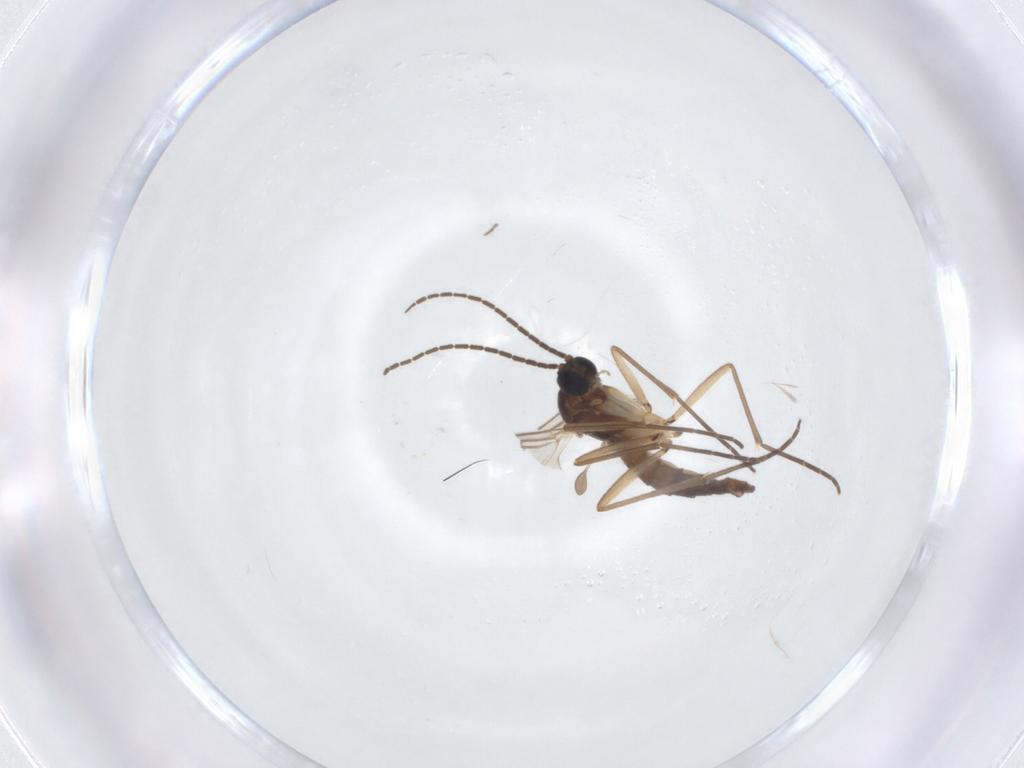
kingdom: Animalia
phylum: Arthropoda
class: Insecta
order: Diptera
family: Sciaridae
